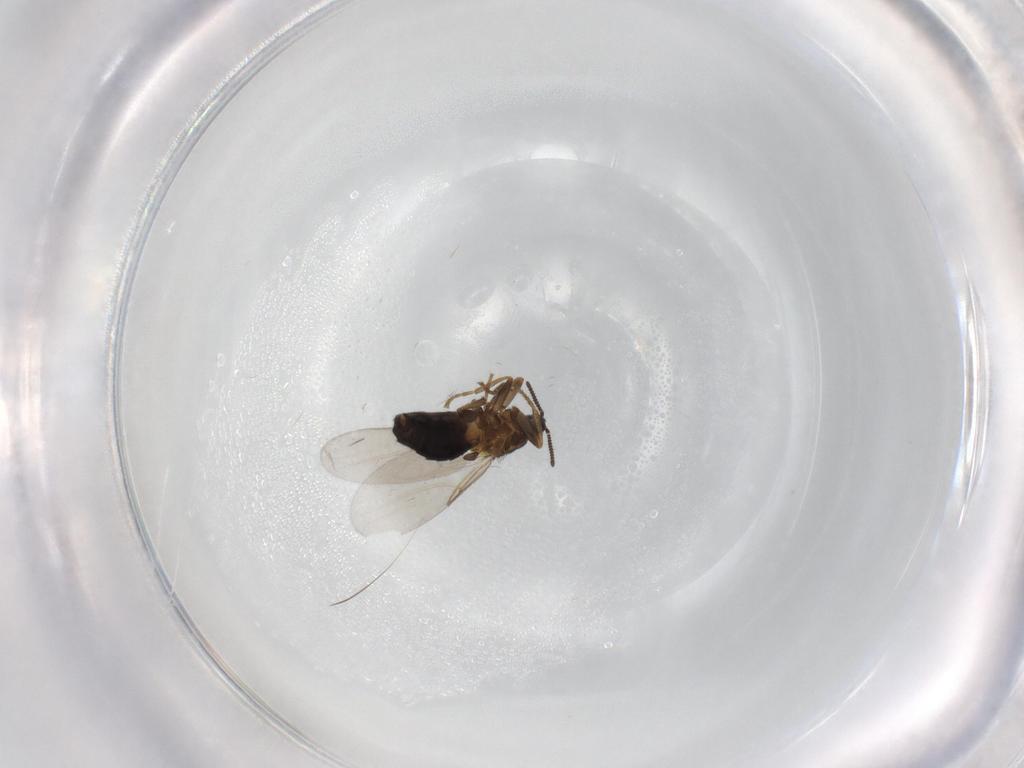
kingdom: Animalia
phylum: Arthropoda
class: Insecta
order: Diptera
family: Scatopsidae
